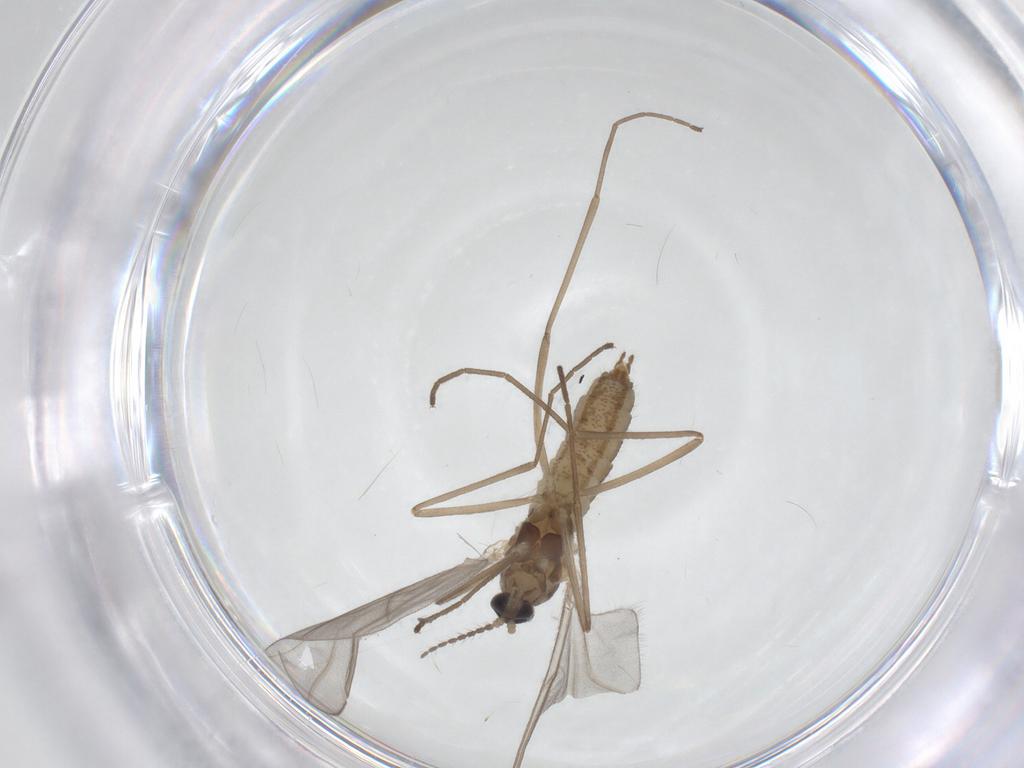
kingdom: Animalia
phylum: Arthropoda
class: Insecta
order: Diptera
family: Cecidomyiidae
